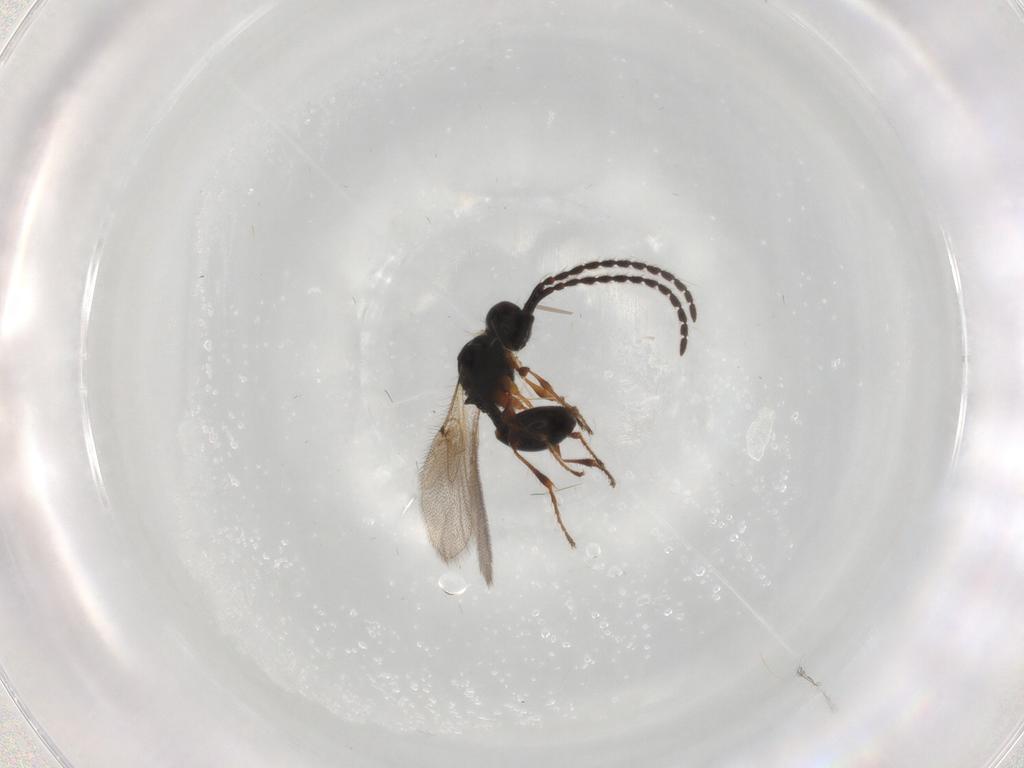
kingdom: Animalia
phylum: Arthropoda
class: Insecta
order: Hymenoptera
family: Diapriidae
